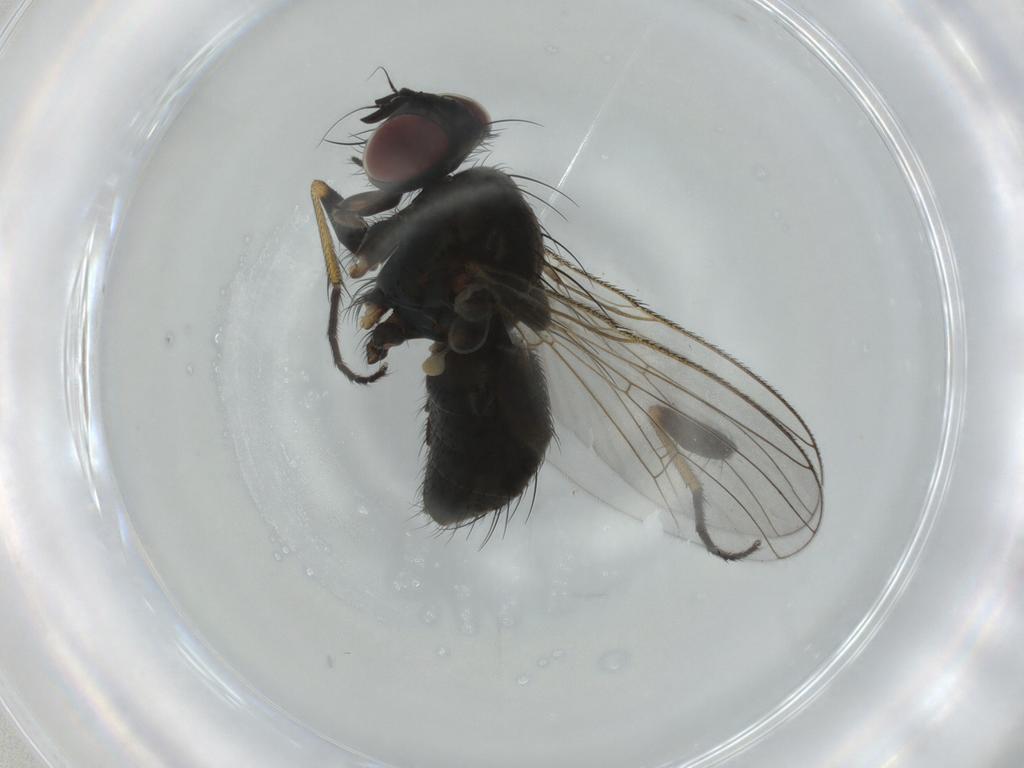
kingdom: Animalia
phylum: Arthropoda
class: Insecta
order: Diptera
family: Muscidae
